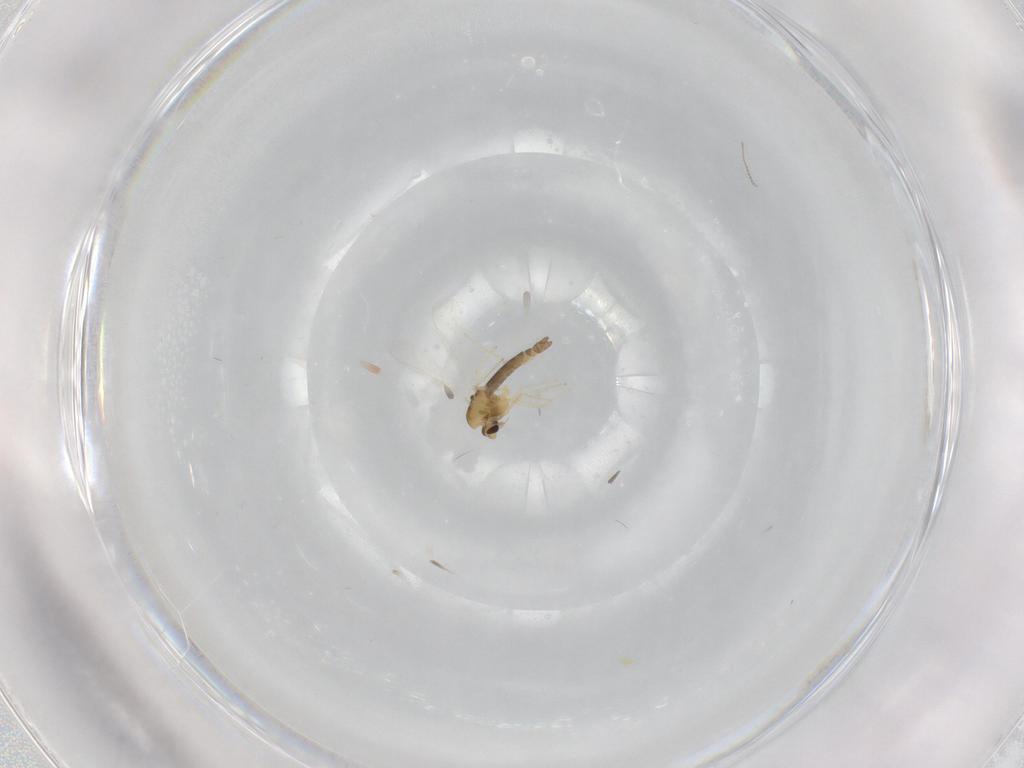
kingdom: Animalia
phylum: Arthropoda
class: Insecta
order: Diptera
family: Chironomidae
